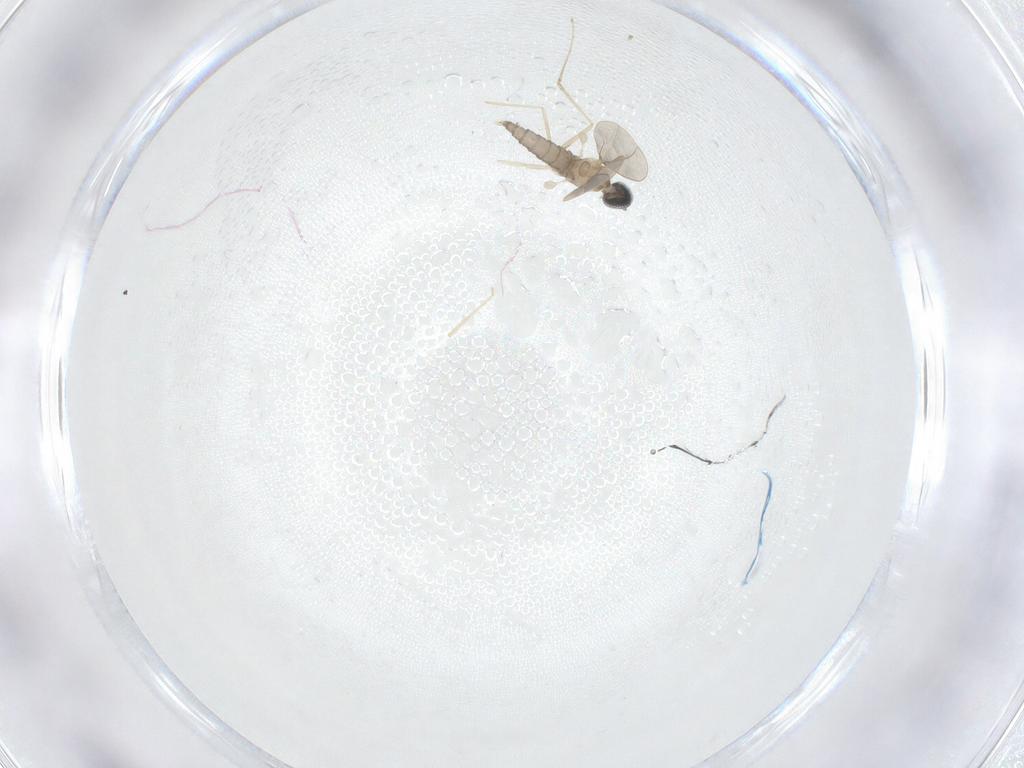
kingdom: Animalia
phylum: Arthropoda
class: Insecta
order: Diptera
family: Cecidomyiidae
